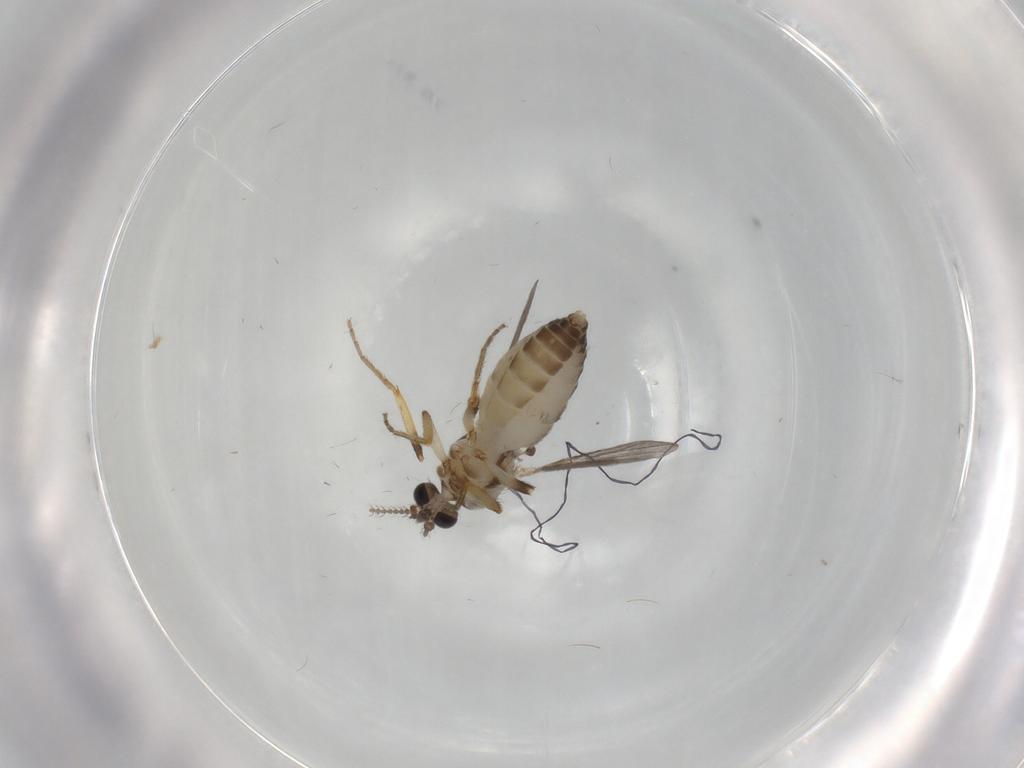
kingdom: Animalia
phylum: Arthropoda
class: Insecta
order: Diptera
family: Ceratopogonidae
